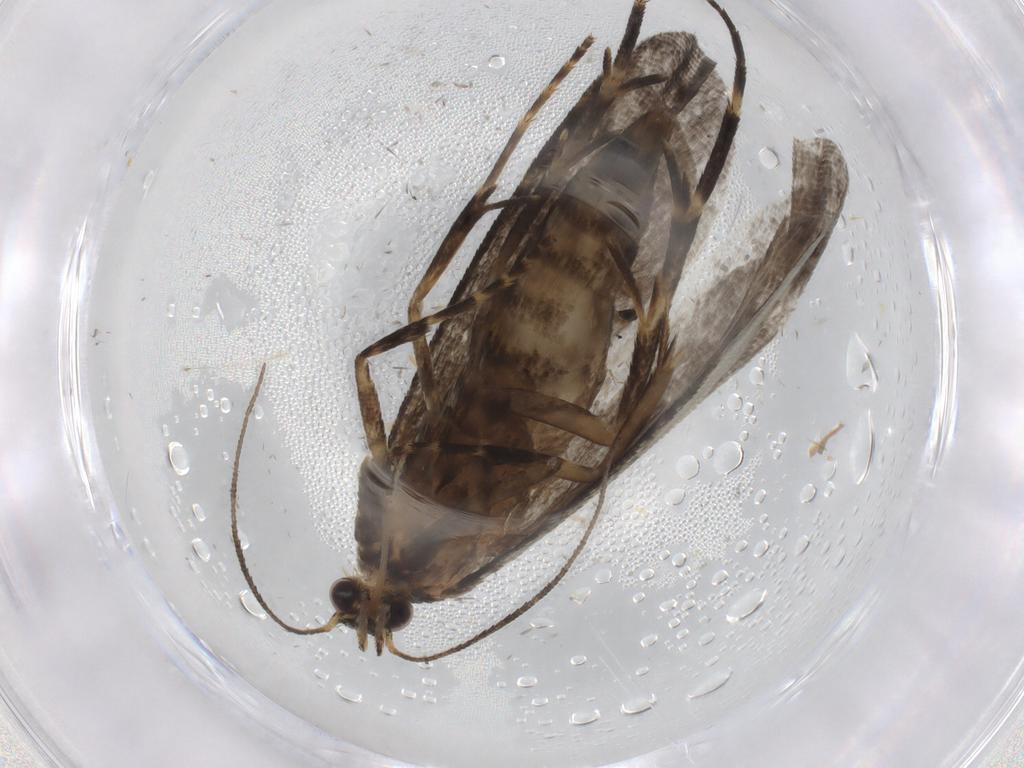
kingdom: Animalia
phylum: Arthropoda
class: Insecta
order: Lepidoptera
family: Crambidae
